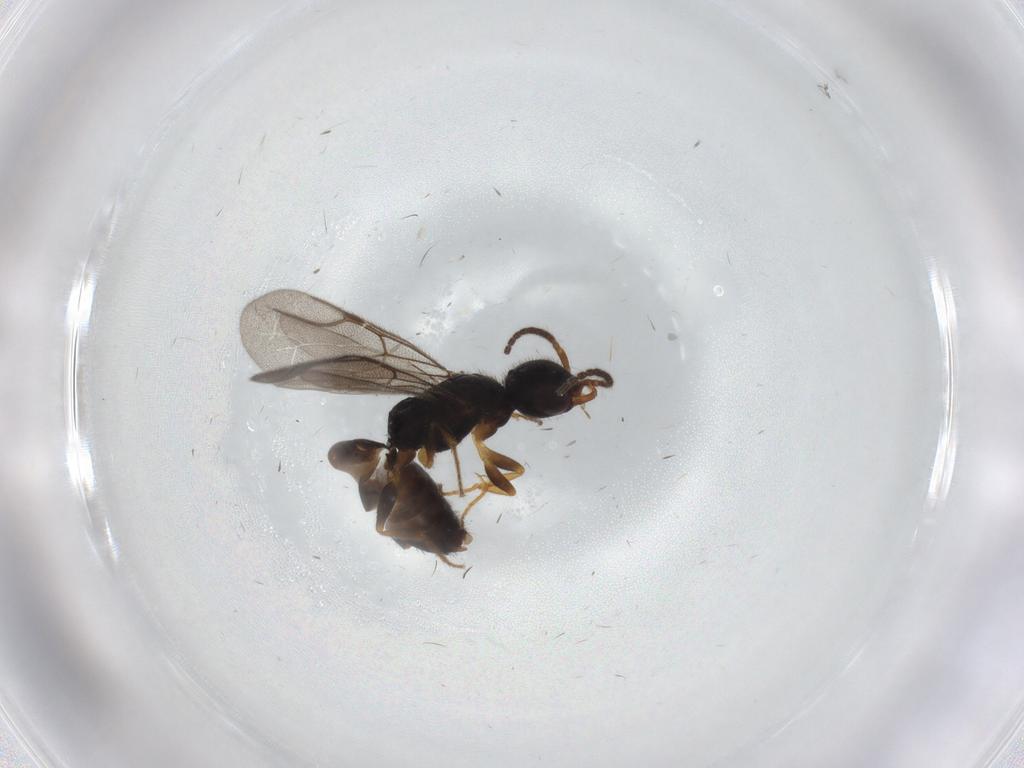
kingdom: Animalia
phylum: Arthropoda
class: Insecta
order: Hymenoptera
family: Bethylidae
